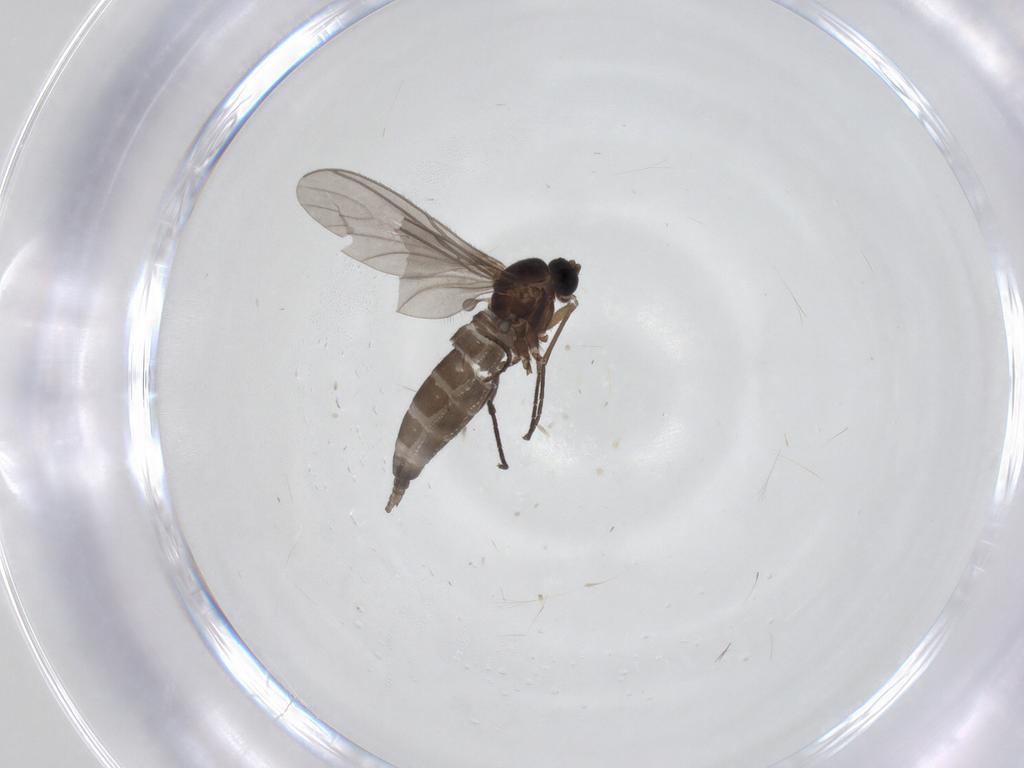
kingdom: Animalia
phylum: Arthropoda
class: Insecta
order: Diptera
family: Sciaridae
